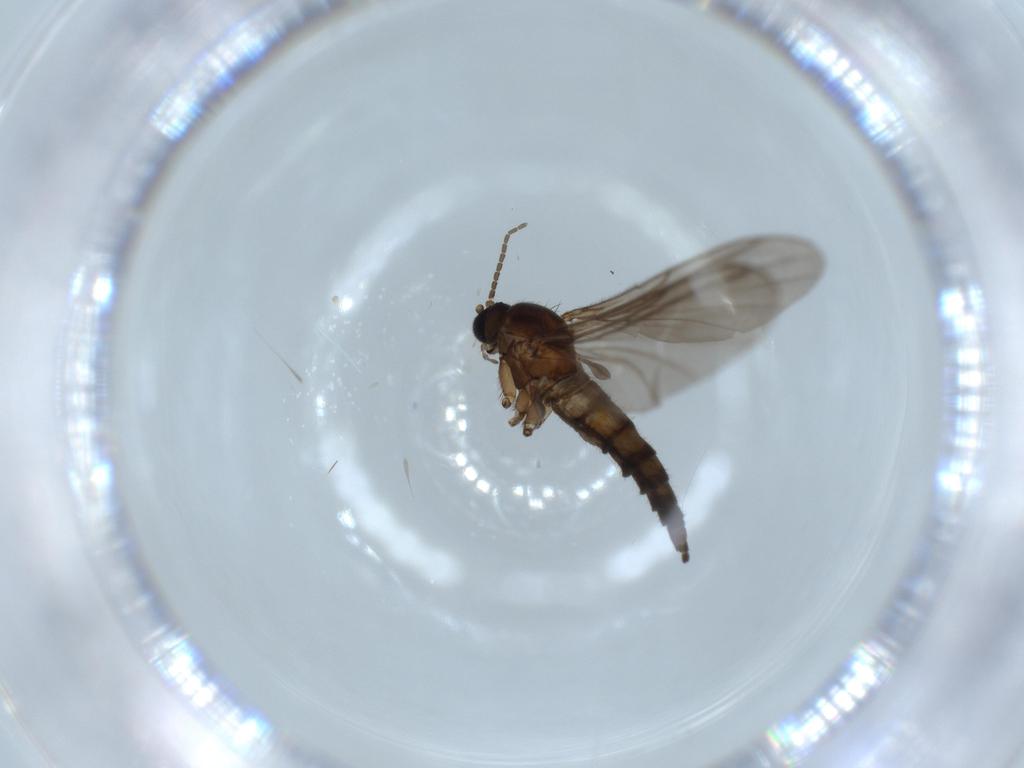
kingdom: Animalia
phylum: Arthropoda
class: Insecta
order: Diptera
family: Sciaridae
